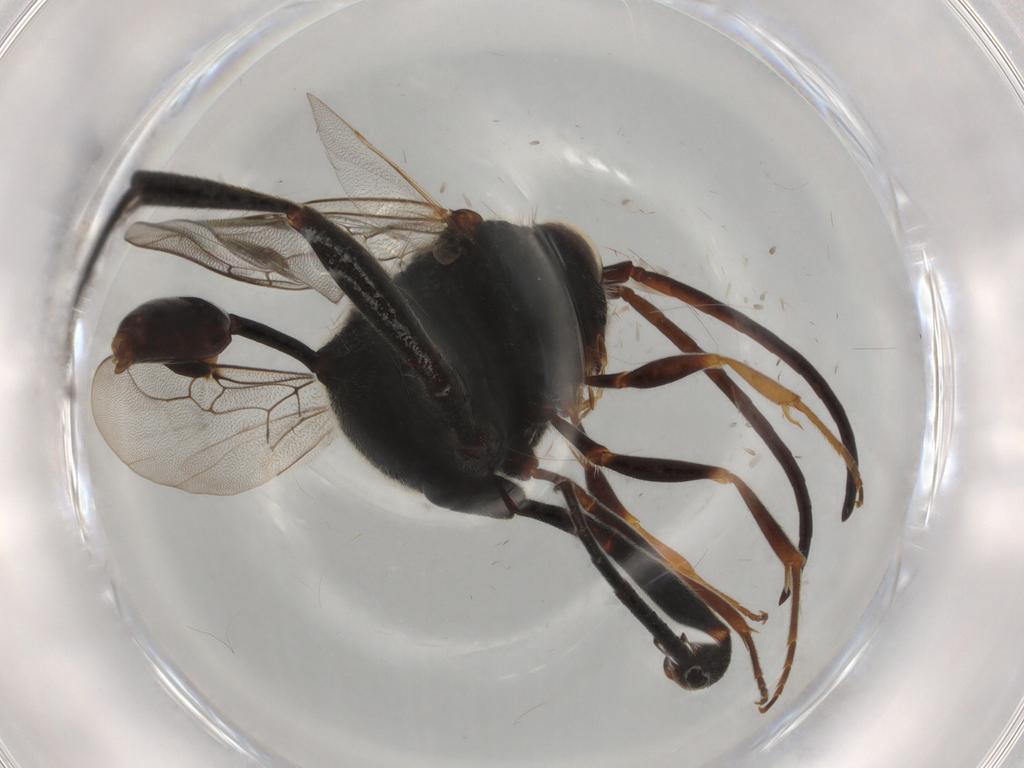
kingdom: Animalia
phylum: Arthropoda
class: Insecta
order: Hymenoptera
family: Evaniidae
